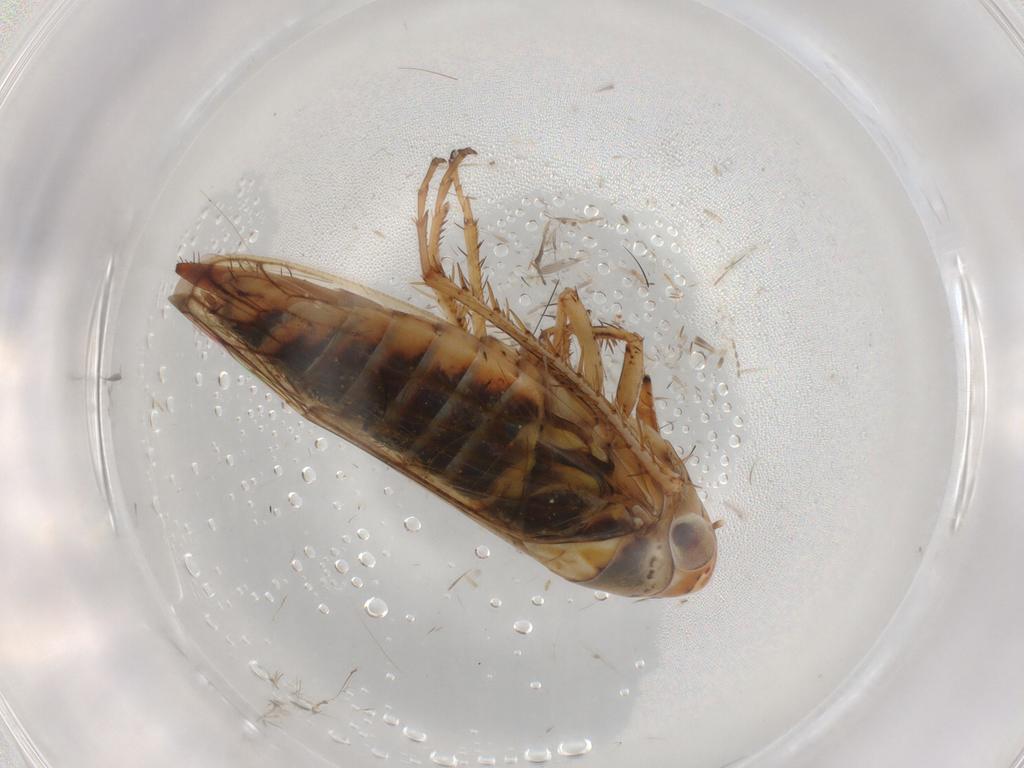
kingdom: Animalia
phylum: Arthropoda
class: Insecta
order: Hemiptera
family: Cicadellidae
